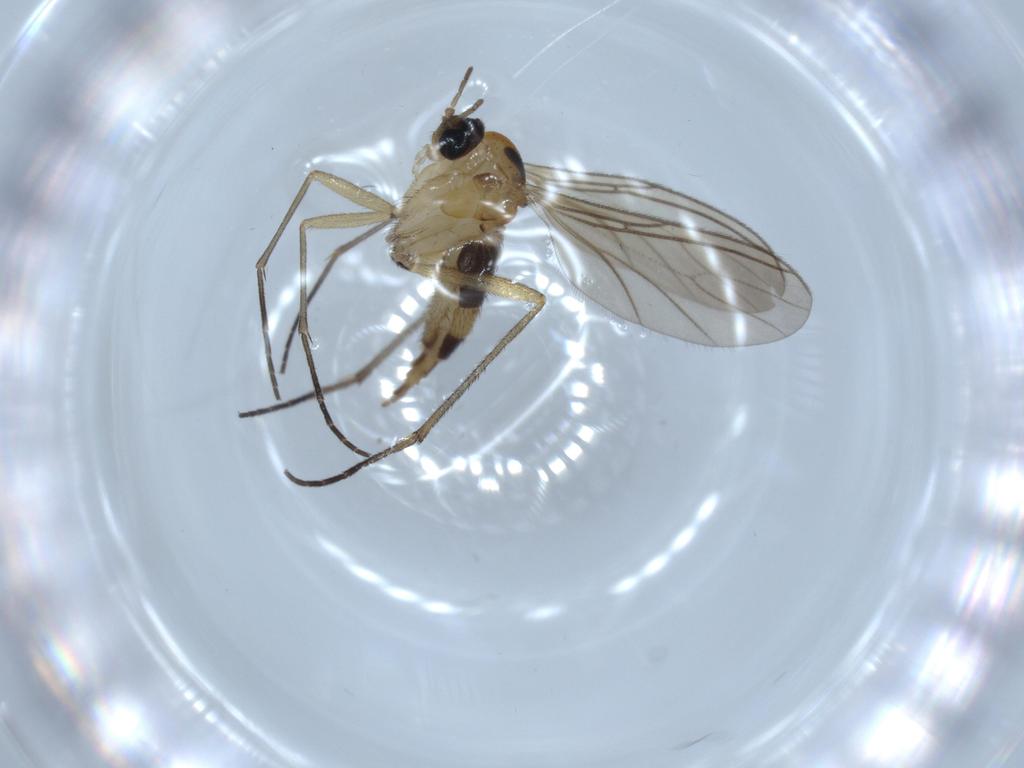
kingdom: Animalia
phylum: Arthropoda
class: Insecta
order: Diptera
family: Sciaridae
